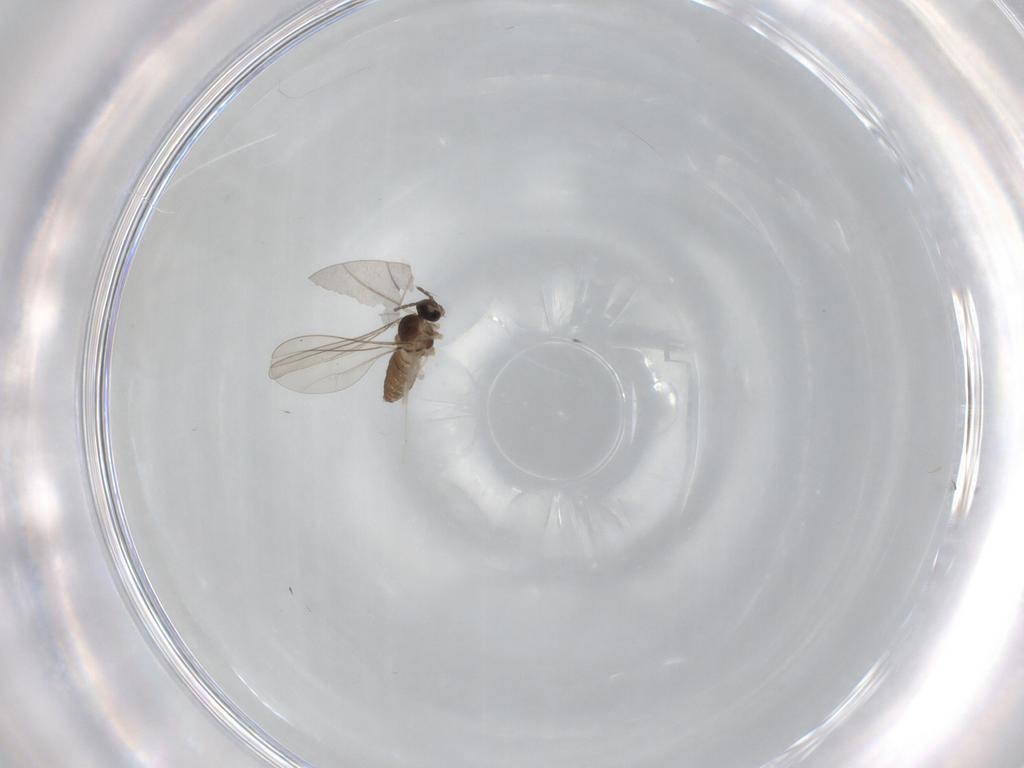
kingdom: Animalia
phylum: Arthropoda
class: Insecta
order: Diptera
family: Cecidomyiidae
